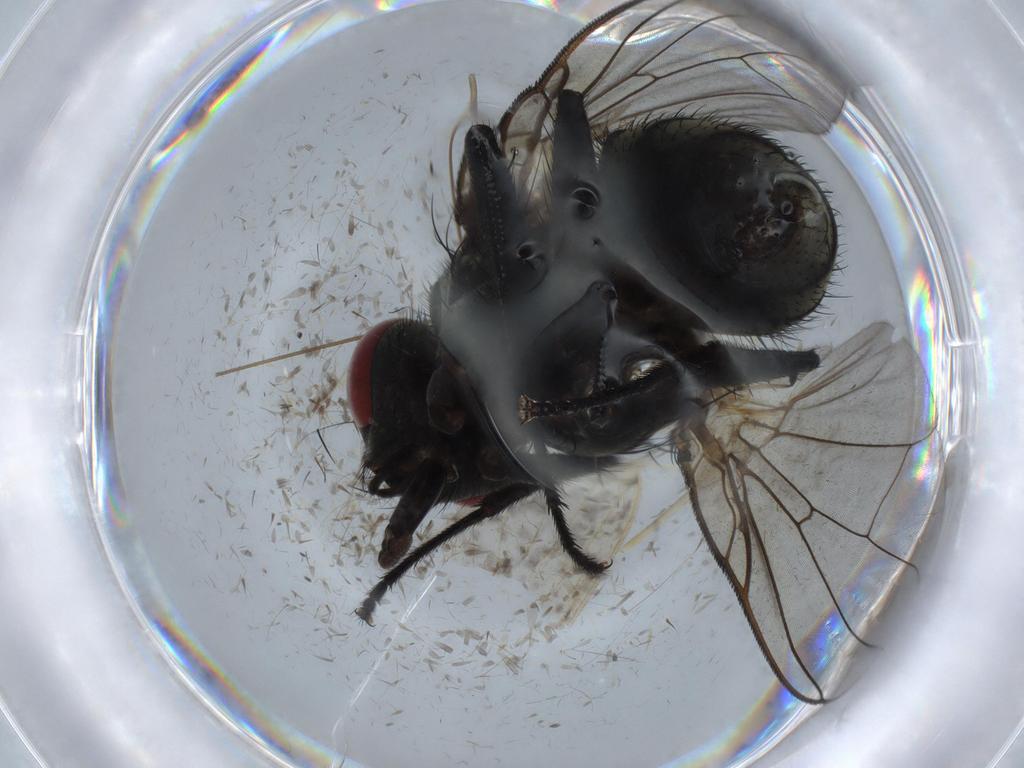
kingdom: Animalia
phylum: Arthropoda
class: Insecta
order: Diptera
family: Muscidae
